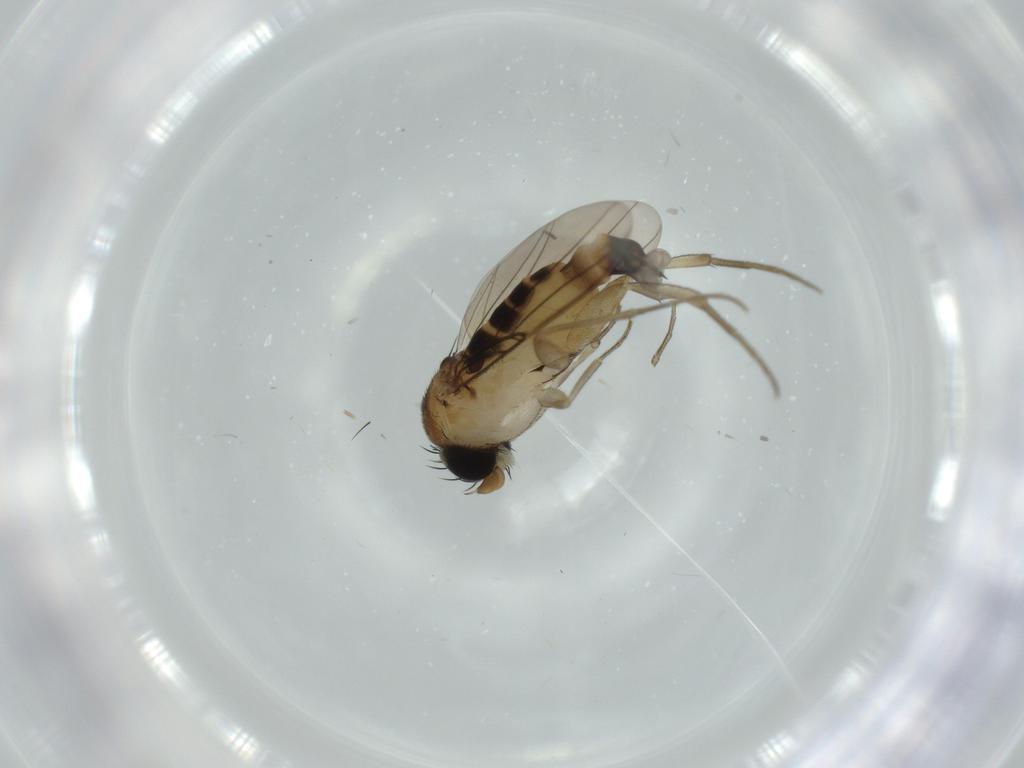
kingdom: Animalia
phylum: Arthropoda
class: Insecta
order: Diptera
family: Phoridae
